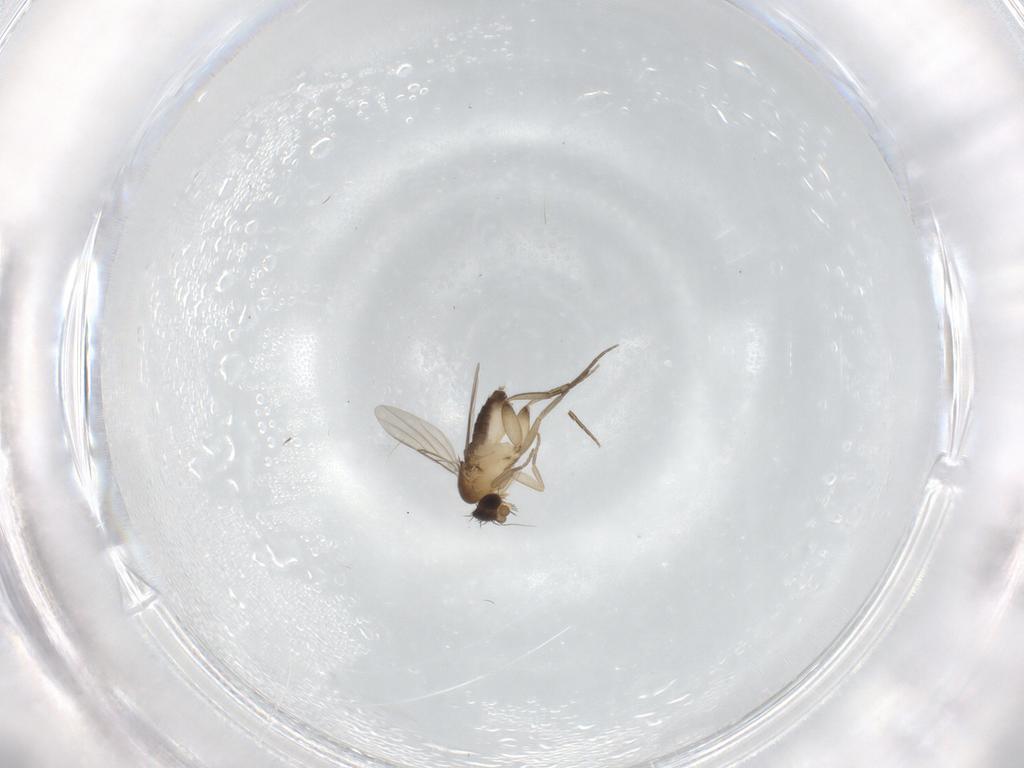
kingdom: Animalia
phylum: Arthropoda
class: Insecta
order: Diptera
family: Phoridae
